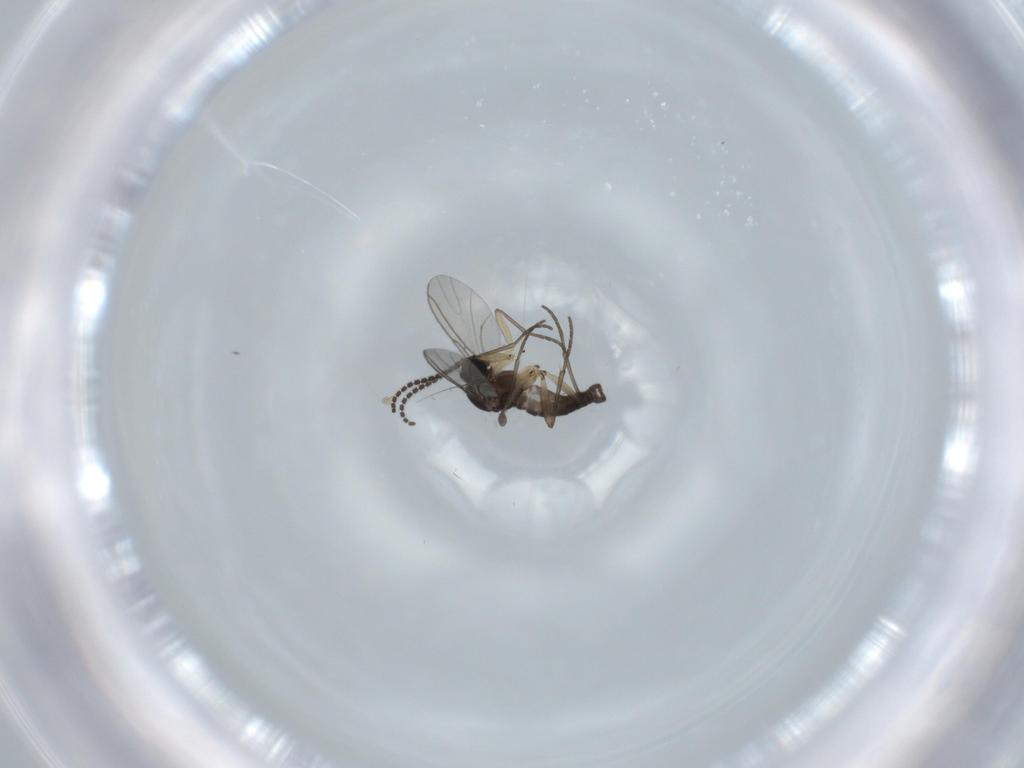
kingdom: Animalia
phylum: Arthropoda
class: Insecta
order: Diptera
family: Sciaridae
